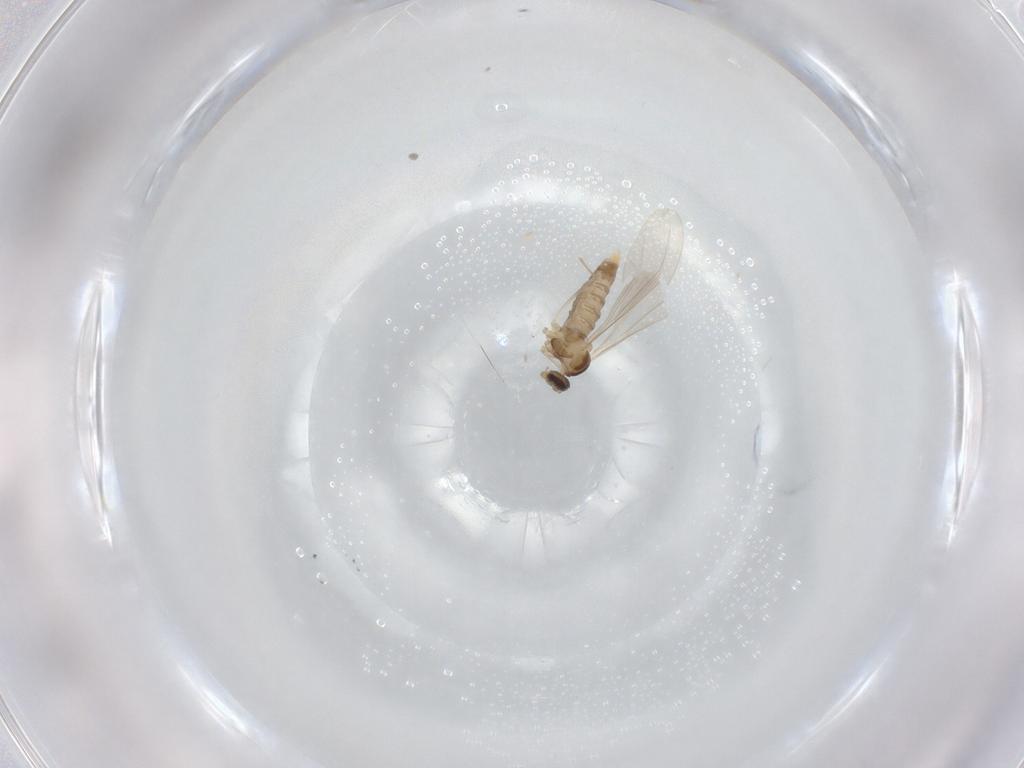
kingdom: Animalia
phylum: Arthropoda
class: Insecta
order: Diptera
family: Cecidomyiidae
